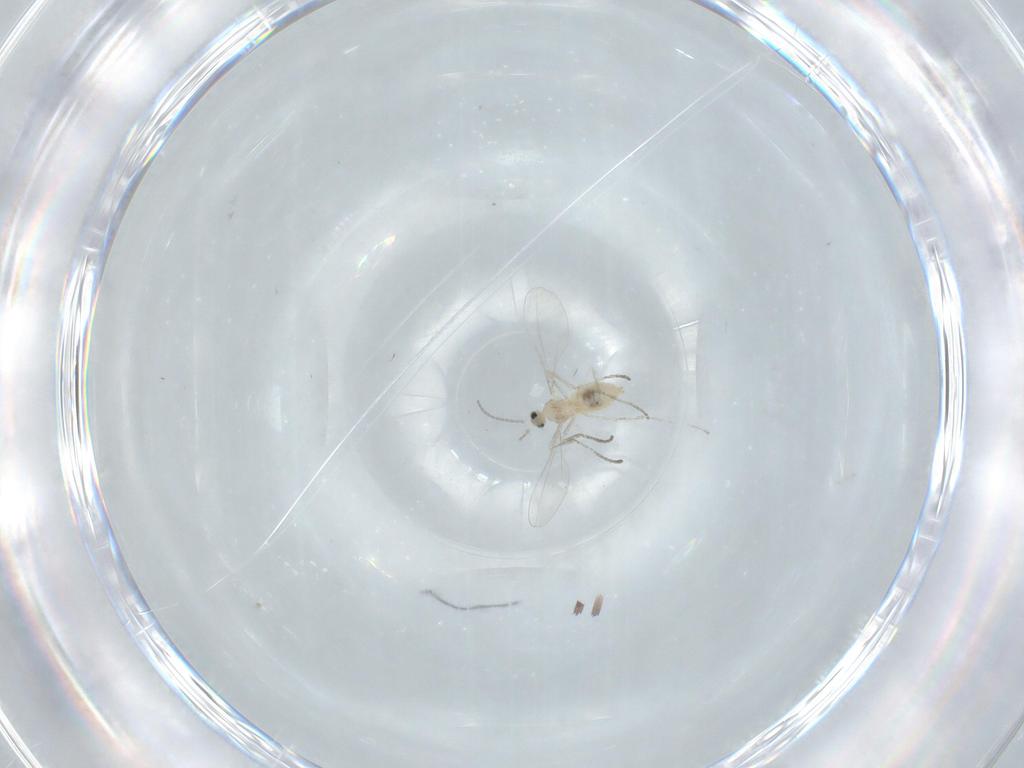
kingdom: Animalia
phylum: Arthropoda
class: Insecta
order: Diptera
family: Cecidomyiidae
